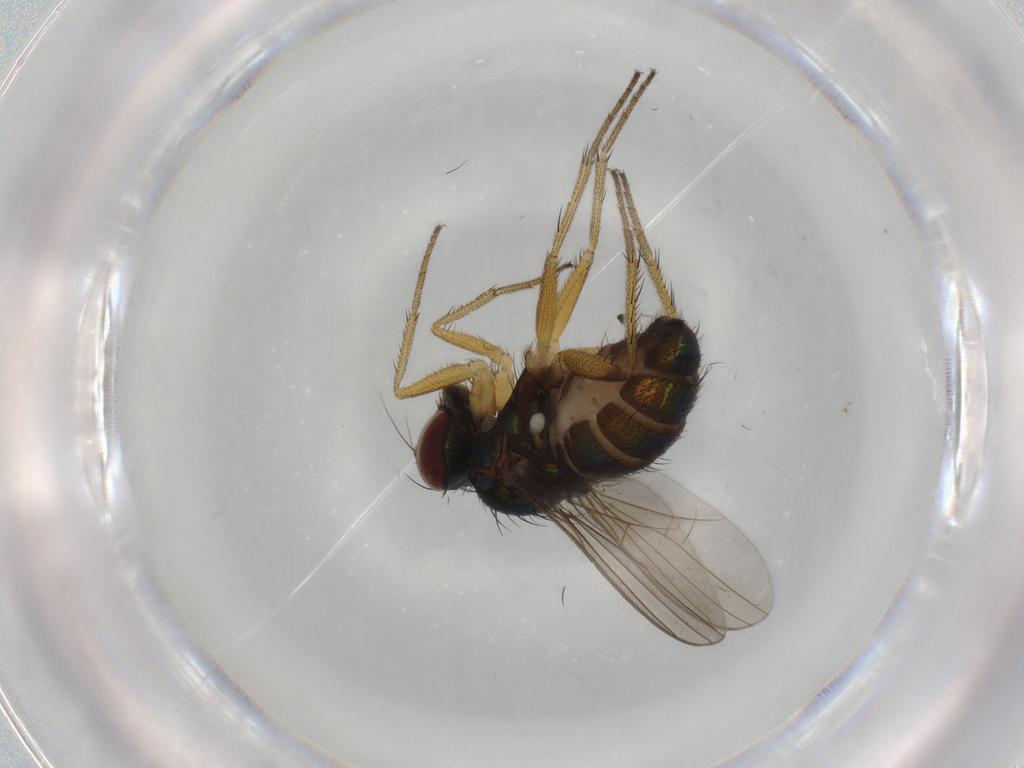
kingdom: Animalia
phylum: Arthropoda
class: Insecta
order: Diptera
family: Dolichopodidae
